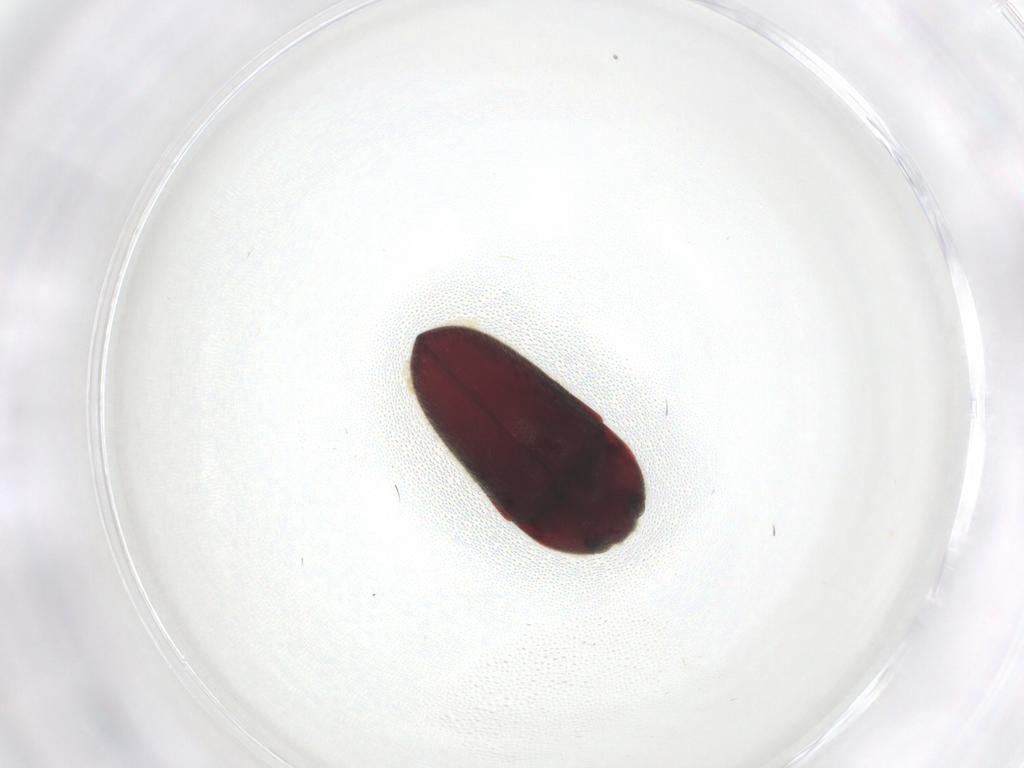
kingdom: Animalia
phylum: Arthropoda
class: Insecta
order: Coleoptera
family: Throscidae
